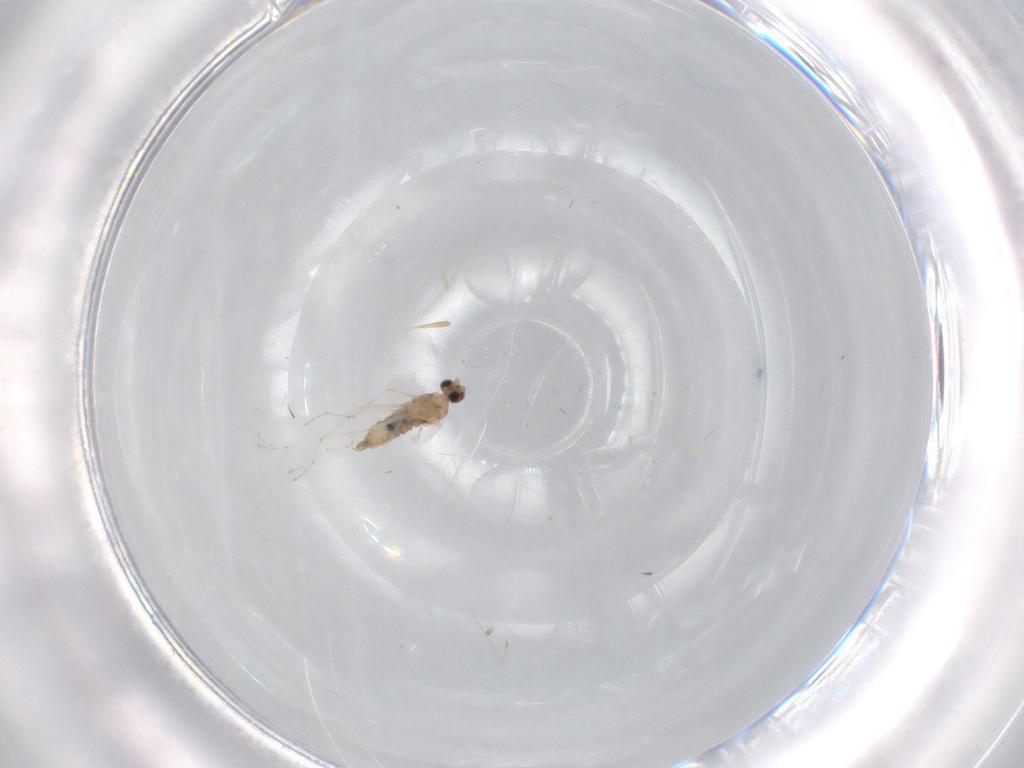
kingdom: Animalia
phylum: Arthropoda
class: Insecta
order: Diptera
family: Cecidomyiidae
